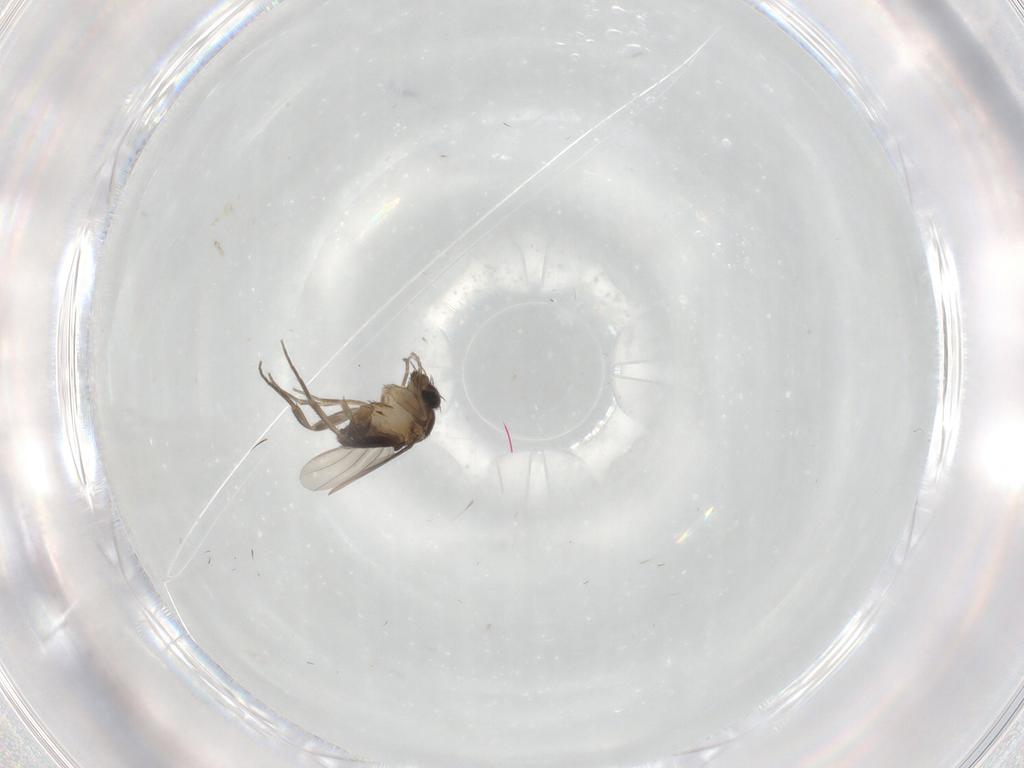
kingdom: Animalia
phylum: Arthropoda
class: Insecta
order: Diptera
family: Phoridae
